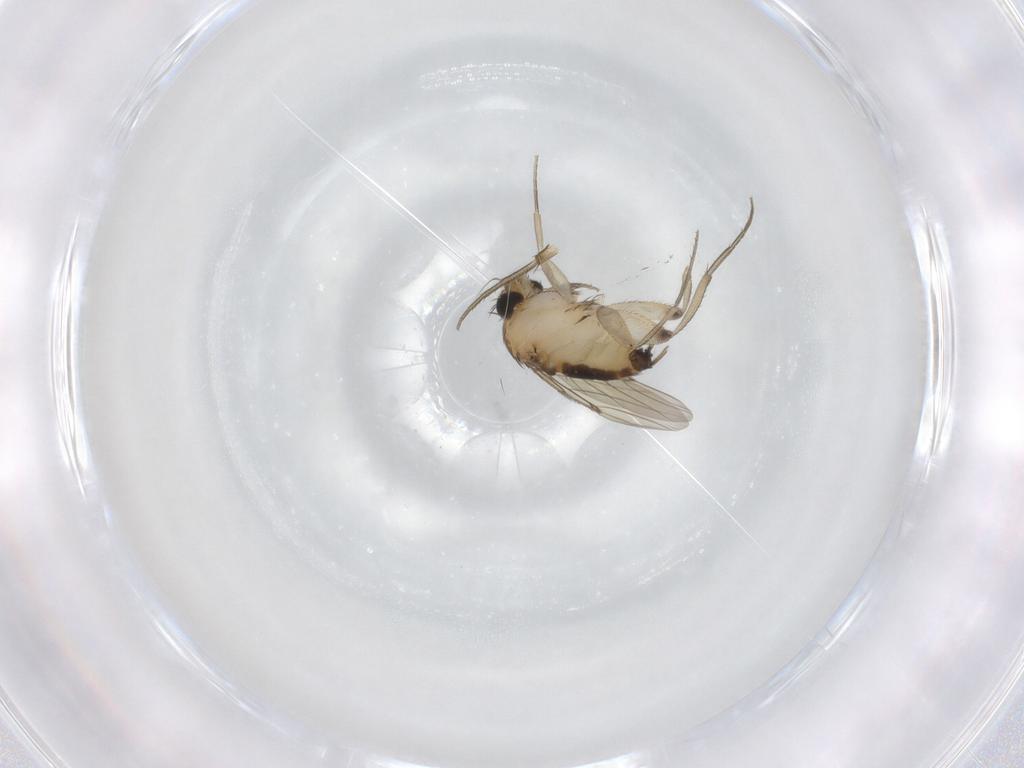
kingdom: Animalia
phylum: Arthropoda
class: Insecta
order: Diptera
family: Phoridae
